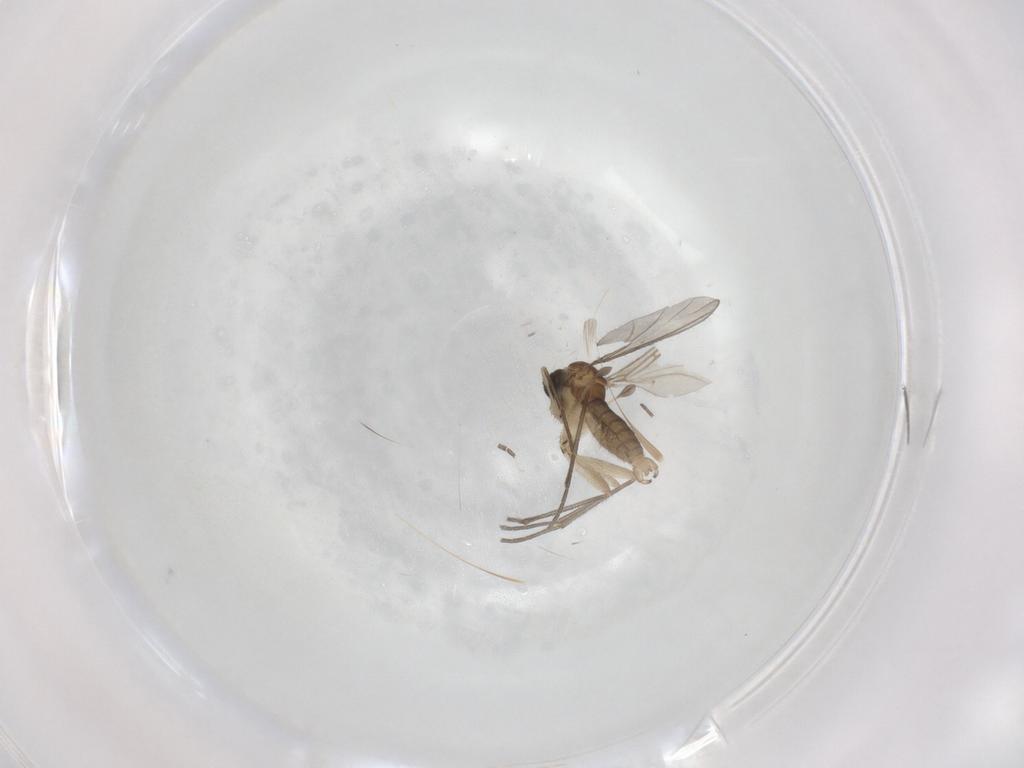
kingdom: Animalia
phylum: Arthropoda
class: Insecta
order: Diptera
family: Sciaridae
